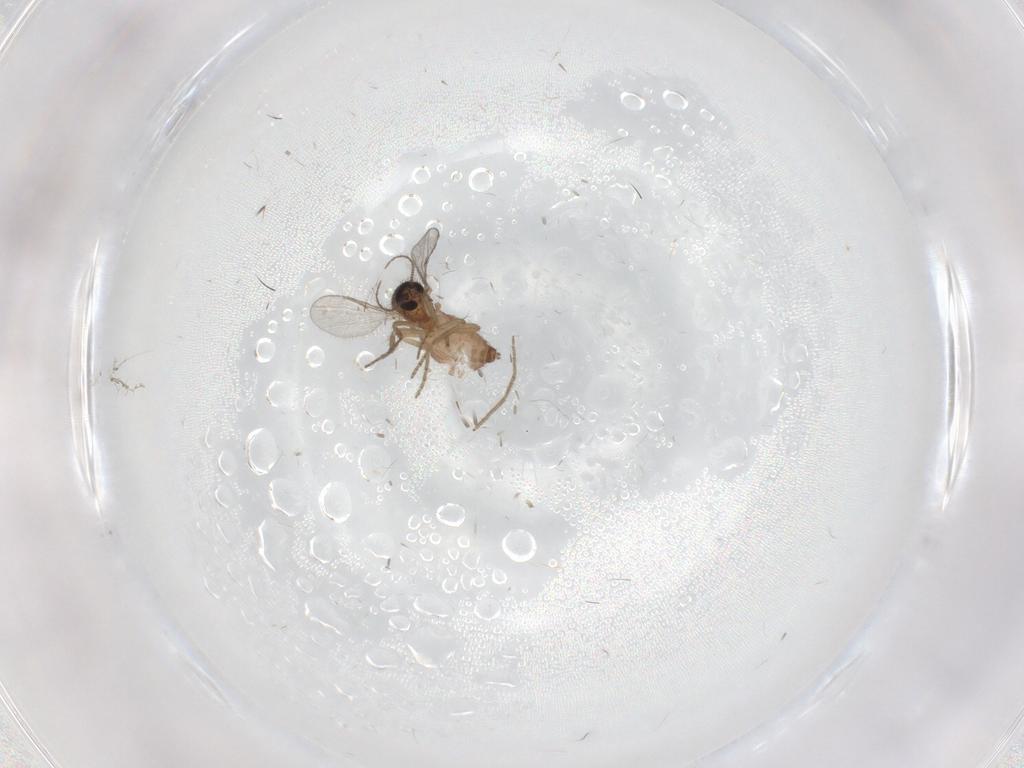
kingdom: Animalia
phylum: Arthropoda
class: Insecta
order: Diptera
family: Ceratopogonidae
